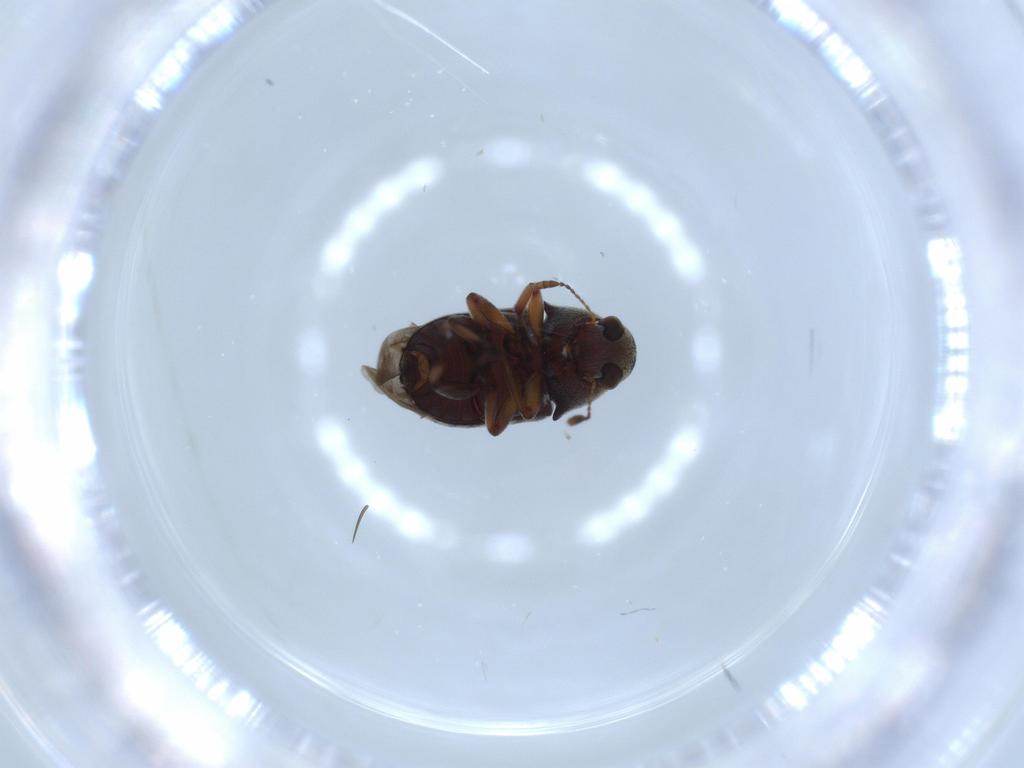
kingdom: Animalia
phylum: Arthropoda
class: Insecta
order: Coleoptera
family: Anthribidae
